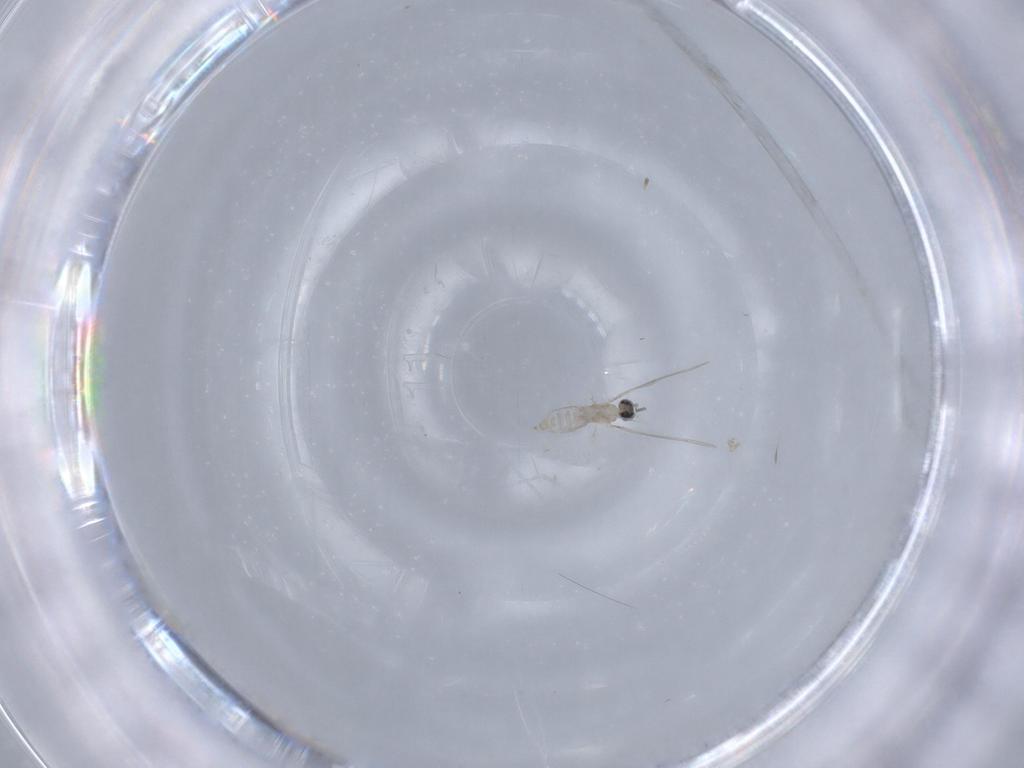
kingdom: Animalia
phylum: Arthropoda
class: Insecta
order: Diptera
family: Cecidomyiidae
